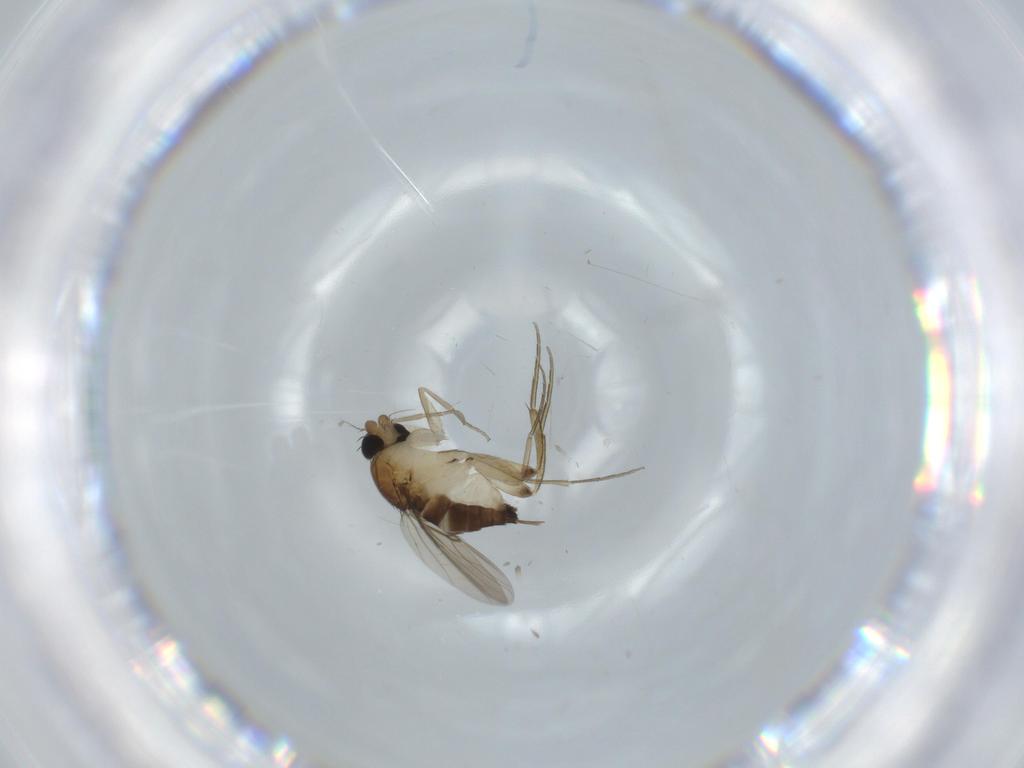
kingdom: Animalia
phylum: Arthropoda
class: Insecta
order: Diptera
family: Phoridae
